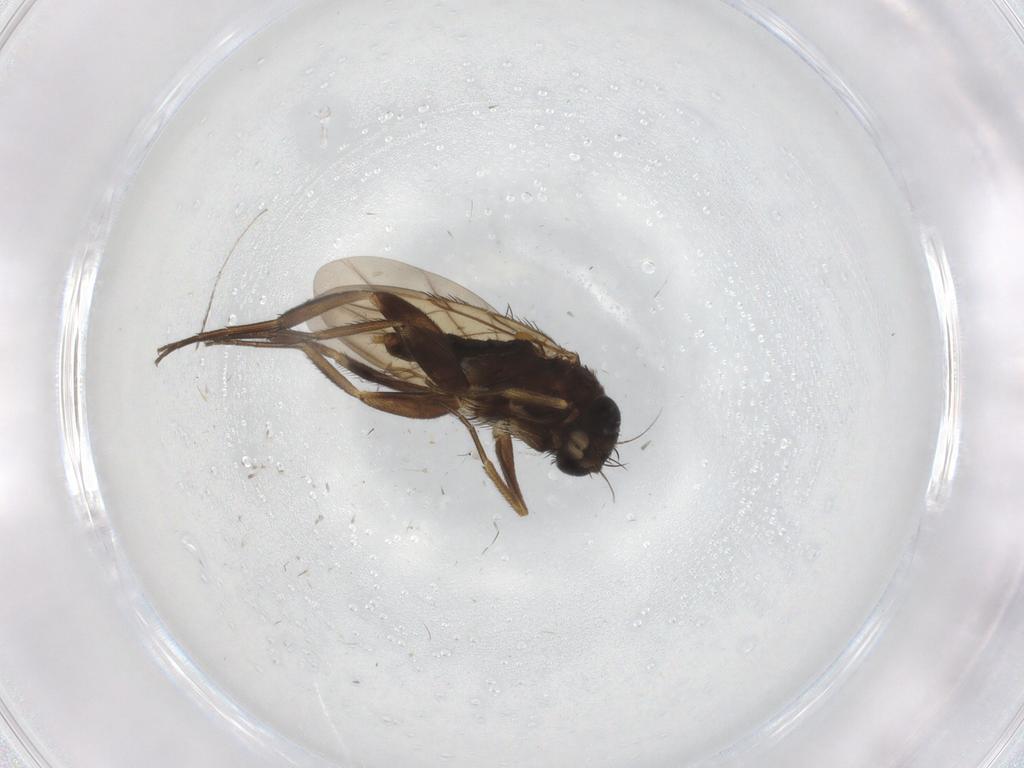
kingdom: Animalia
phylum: Arthropoda
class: Insecta
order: Diptera
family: Phoridae
